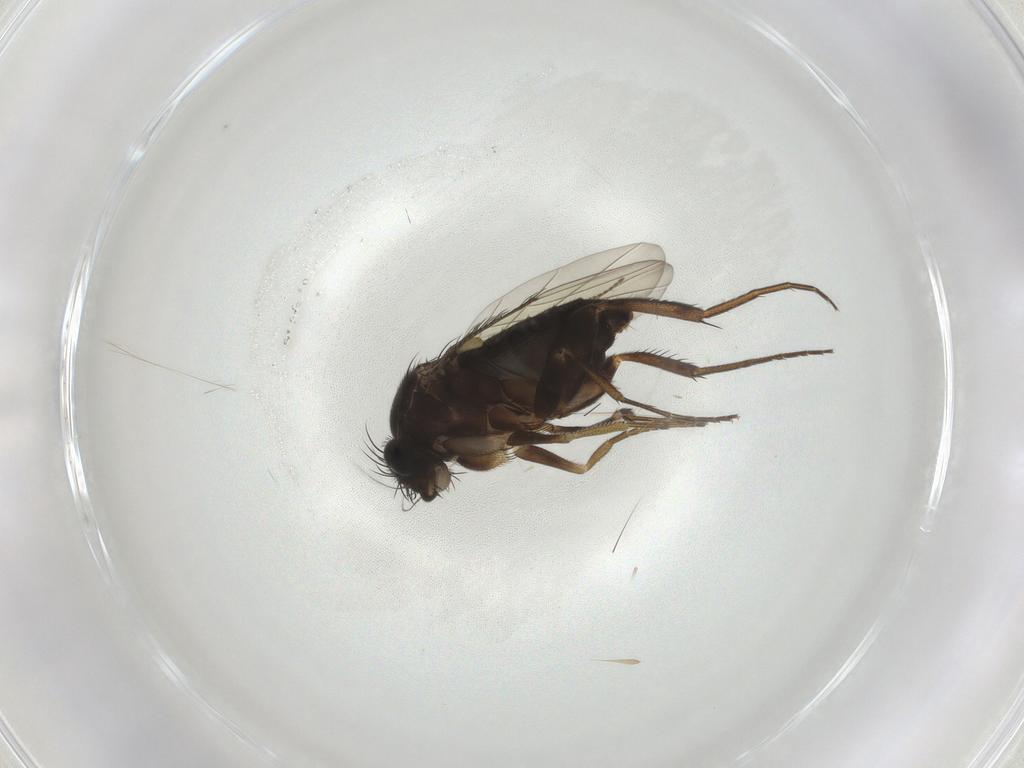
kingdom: Animalia
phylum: Arthropoda
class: Insecta
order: Diptera
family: Phoridae
